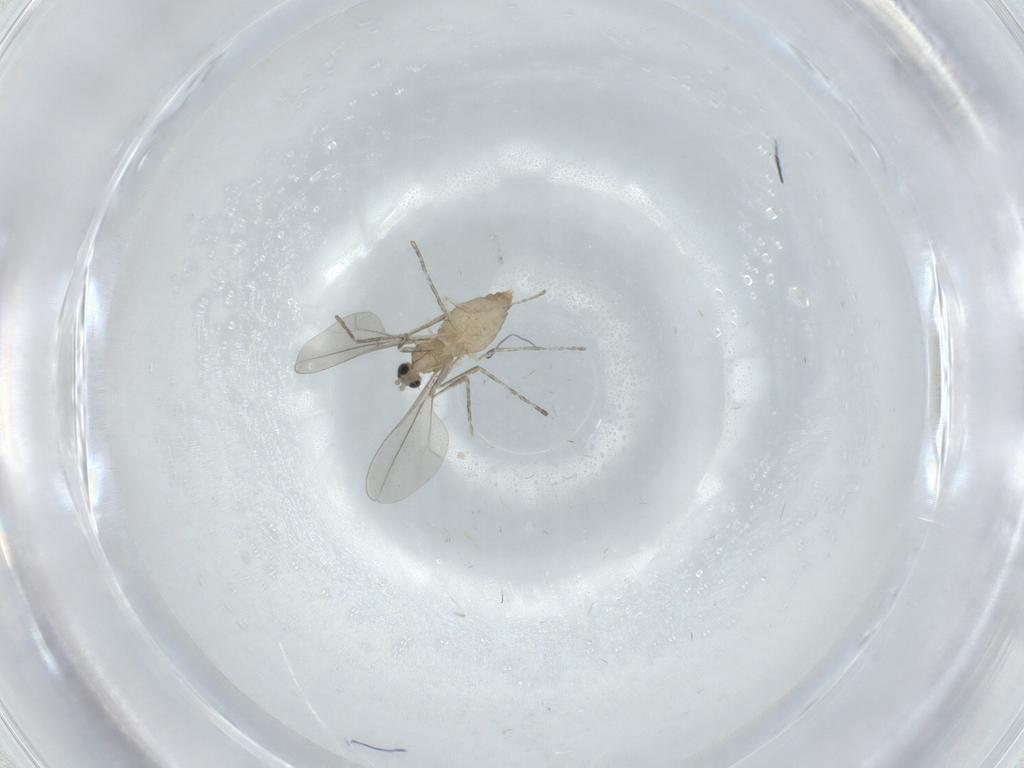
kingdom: Animalia
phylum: Arthropoda
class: Insecta
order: Diptera
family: Cecidomyiidae
